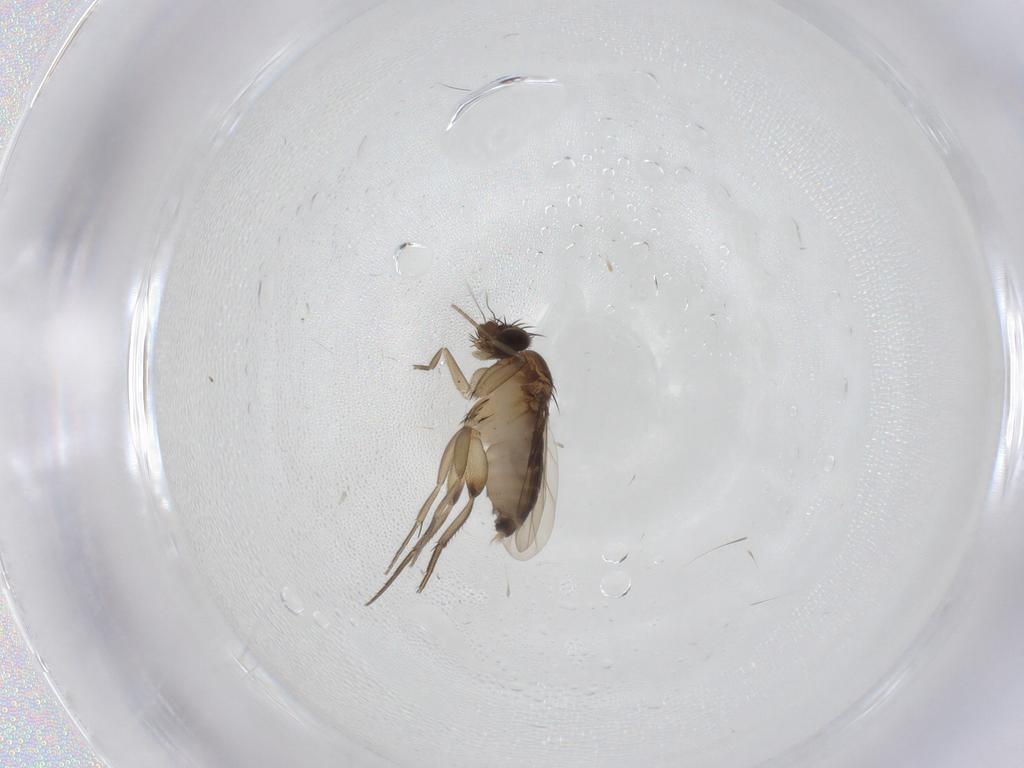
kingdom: Animalia
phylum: Arthropoda
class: Insecta
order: Diptera
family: Phoridae
